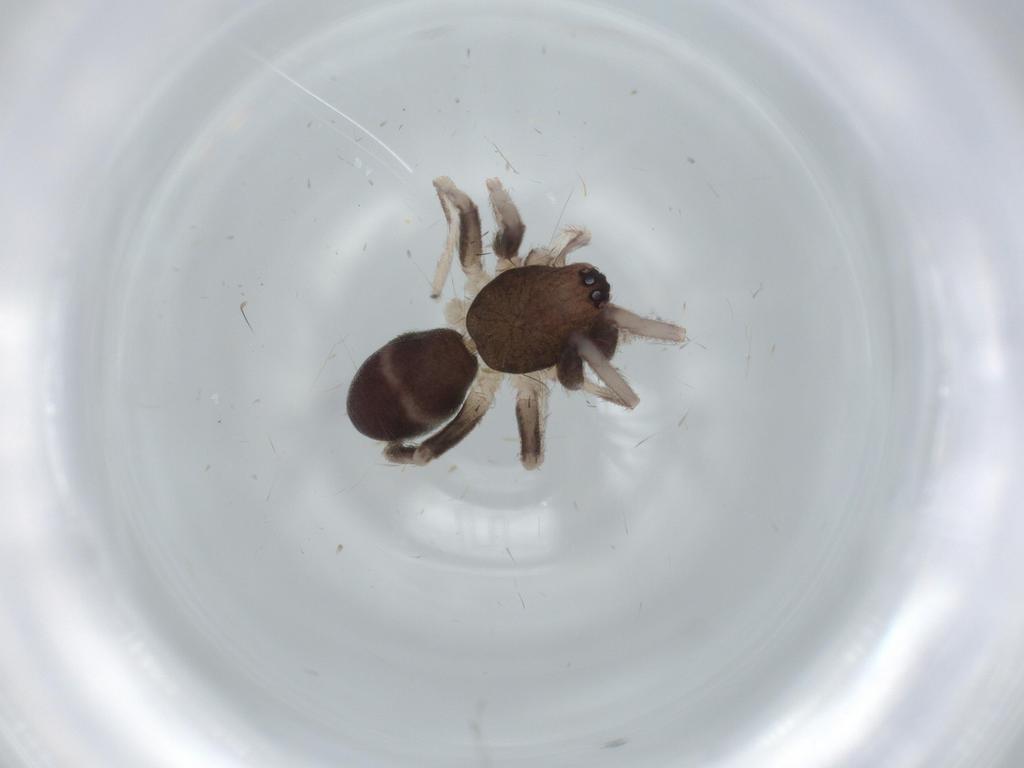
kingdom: Animalia
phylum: Arthropoda
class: Arachnida
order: Araneae
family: Corinnidae
